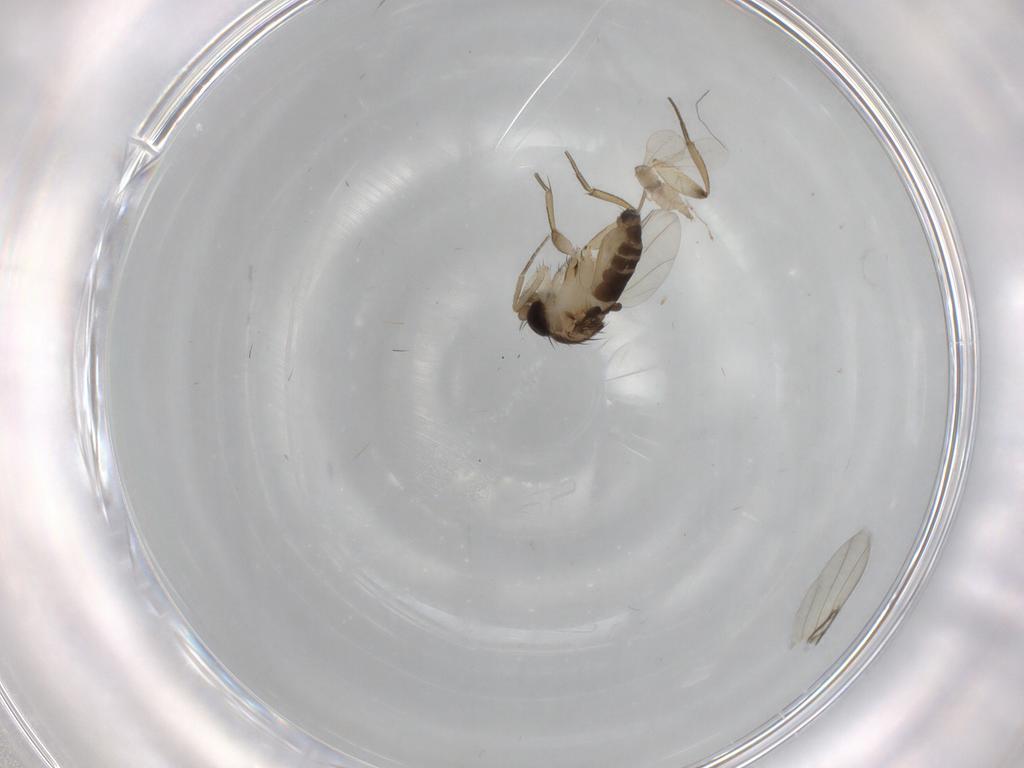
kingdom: Animalia
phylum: Arthropoda
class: Insecta
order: Diptera
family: Phoridae
